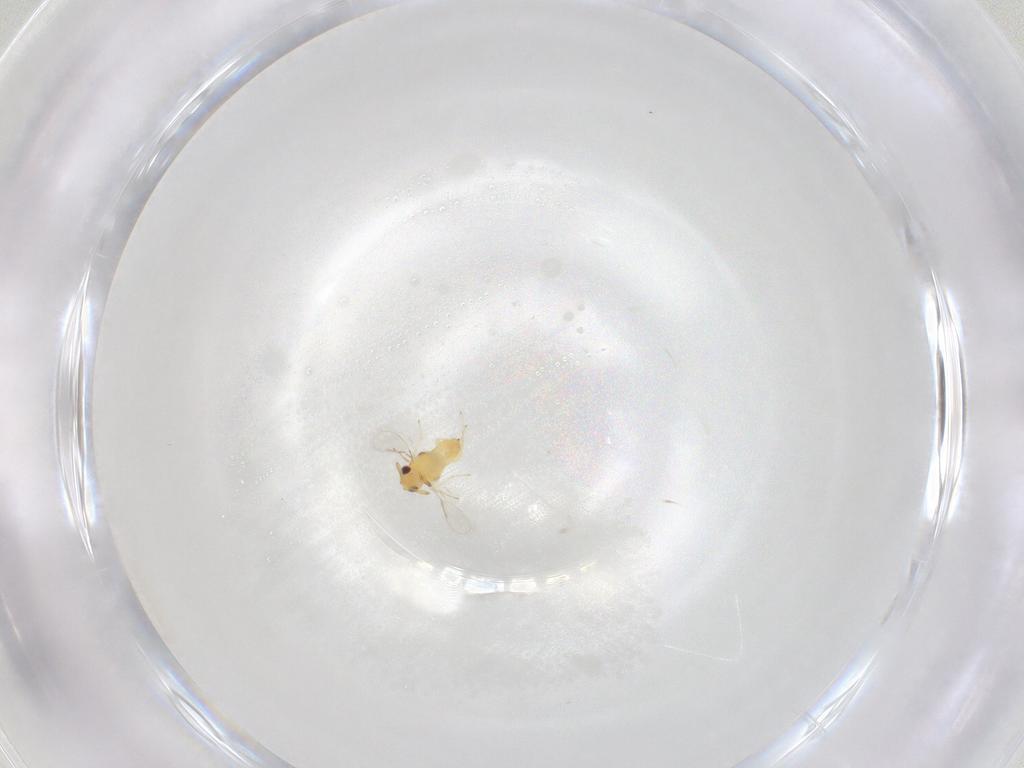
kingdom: Animalia
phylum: Arthropoda
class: Insecta
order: Hymenoptera
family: Aphelinidae
